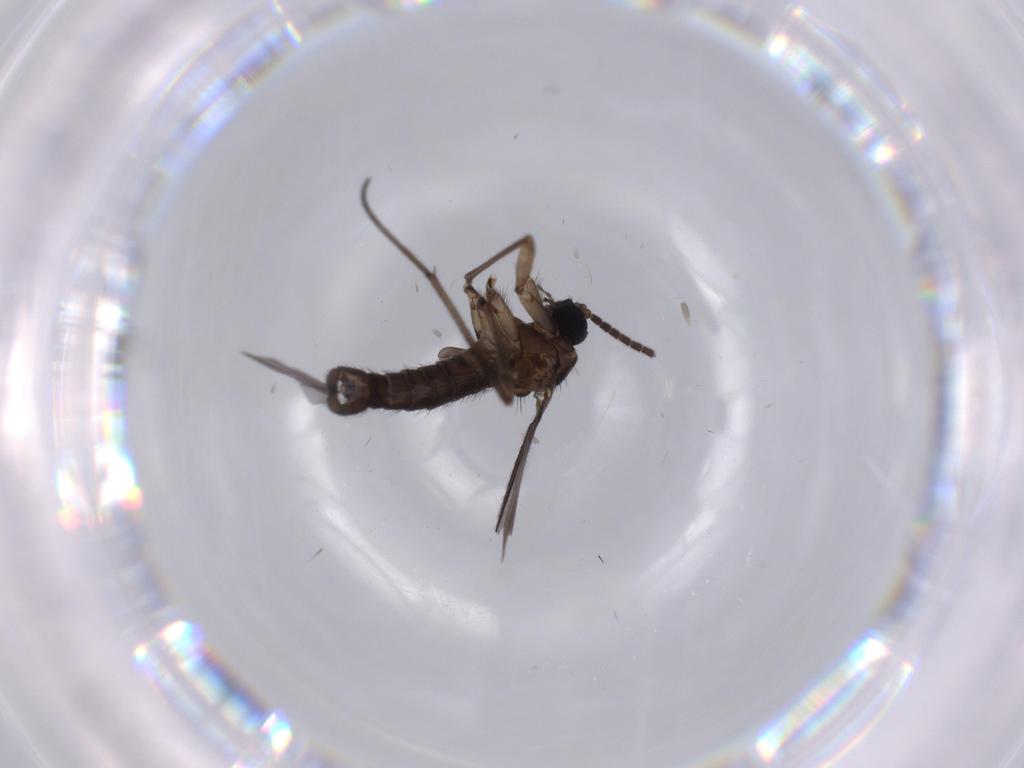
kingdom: Animalia
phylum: Arthropoda
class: Insecta
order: Diptera
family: Sciaridae
